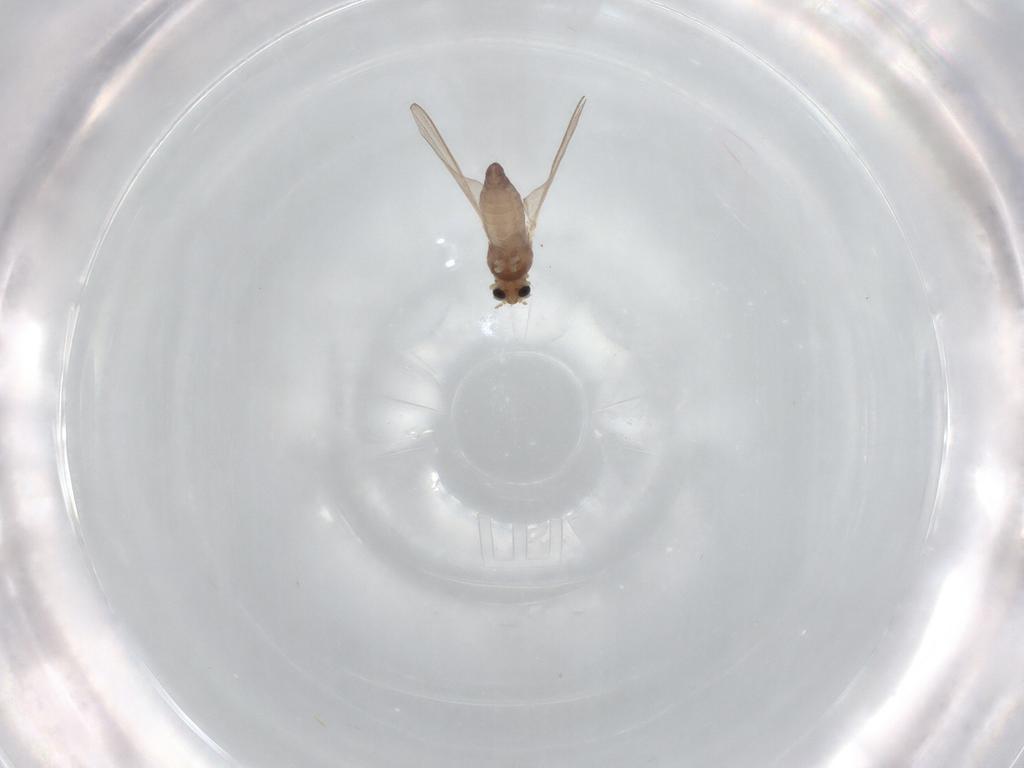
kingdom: Animalia
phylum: Arthropoda
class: Insecta
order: Diptera
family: Chironomidae
